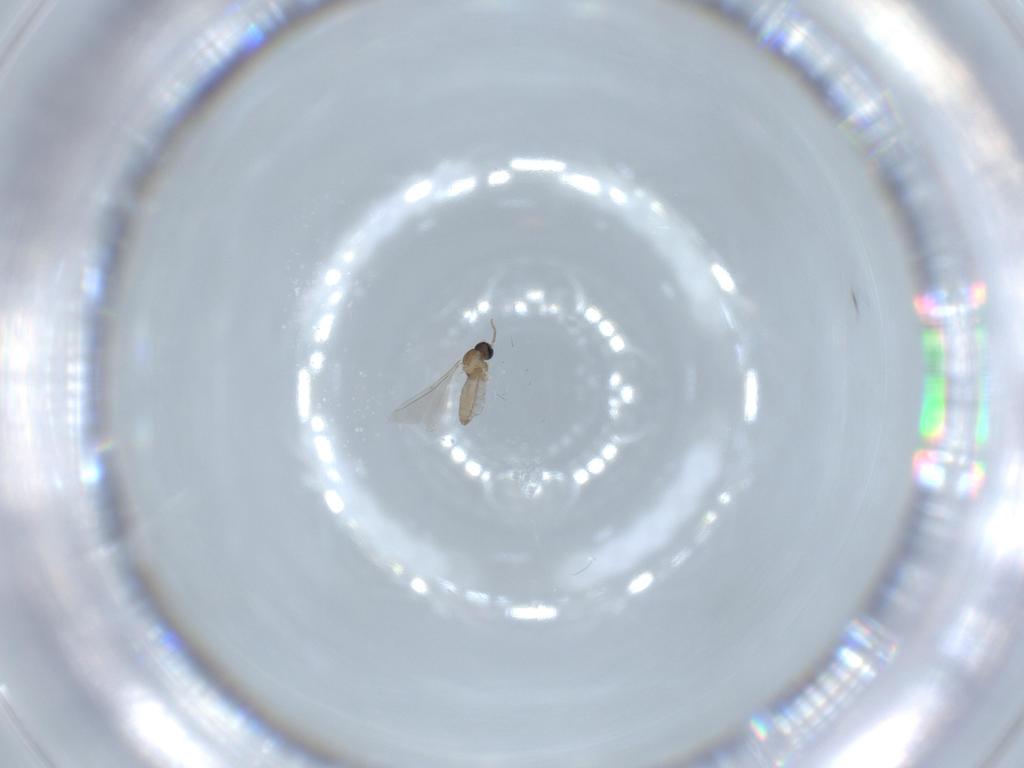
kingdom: Animalia
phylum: Arthropoda
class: Insecta
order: Diptera
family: Cecidomyiidae
